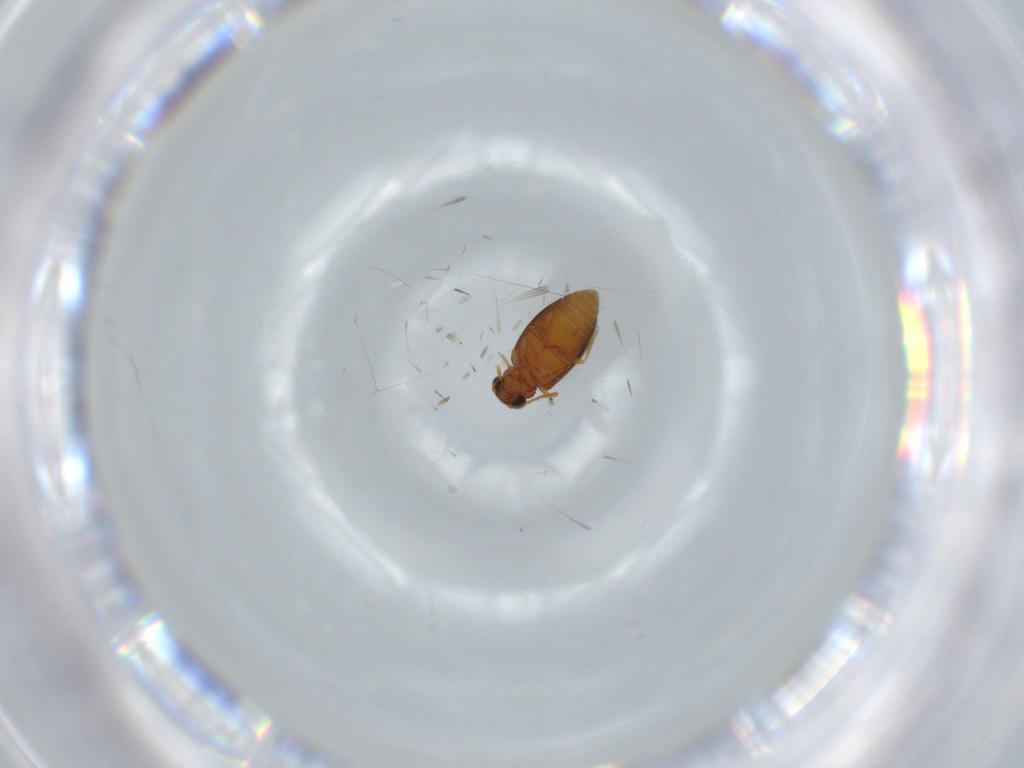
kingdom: Animalia
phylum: Arthropoda
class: Insecta
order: Coleoptera
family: Aderidae
